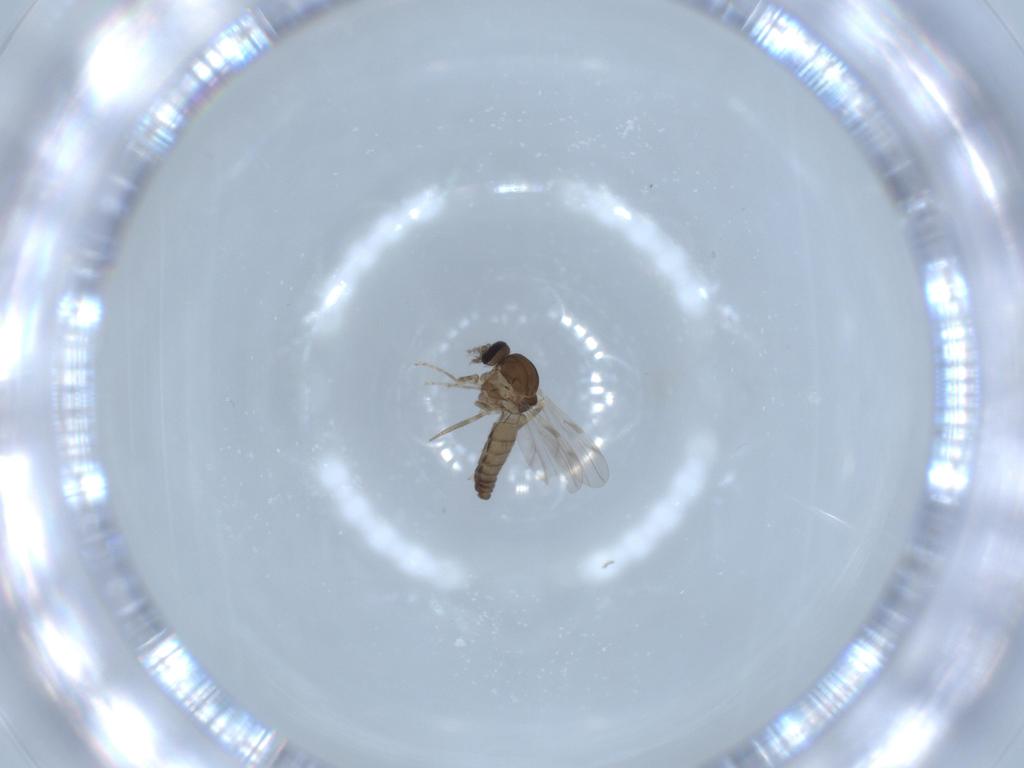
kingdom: Animalia
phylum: Arthropoda
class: Insecta
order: Diptera
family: Ceratopogonidae
